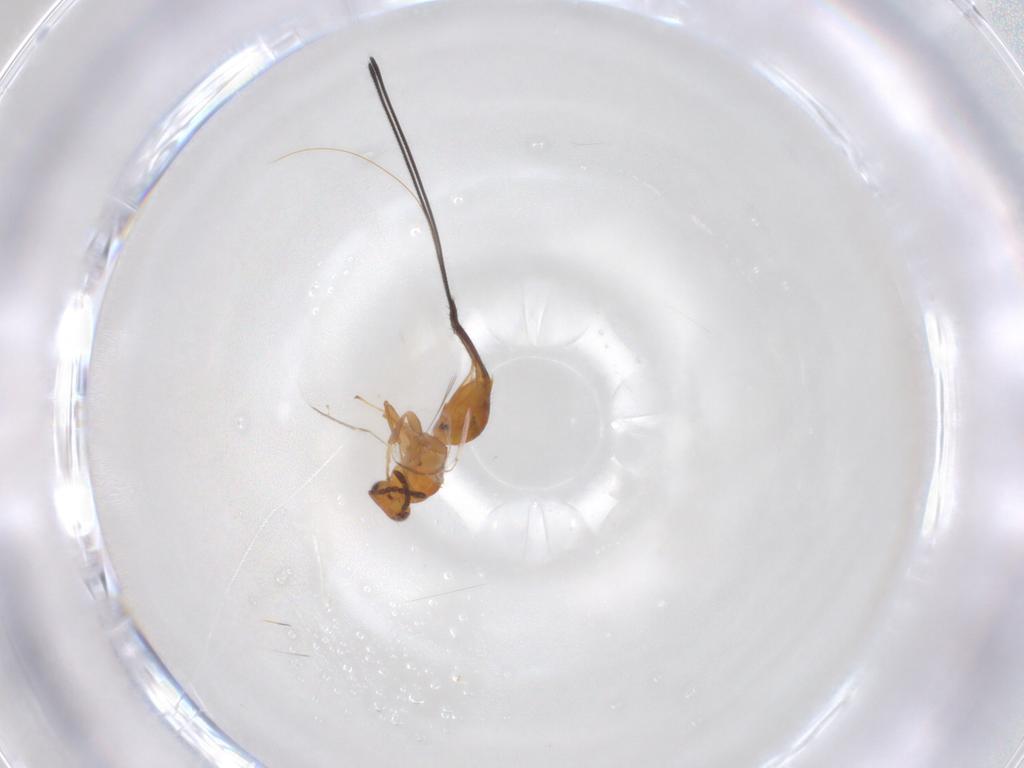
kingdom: Animalia
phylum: Arthropoda
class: Insecta
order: Hymenoptera
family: Pteromalidae
